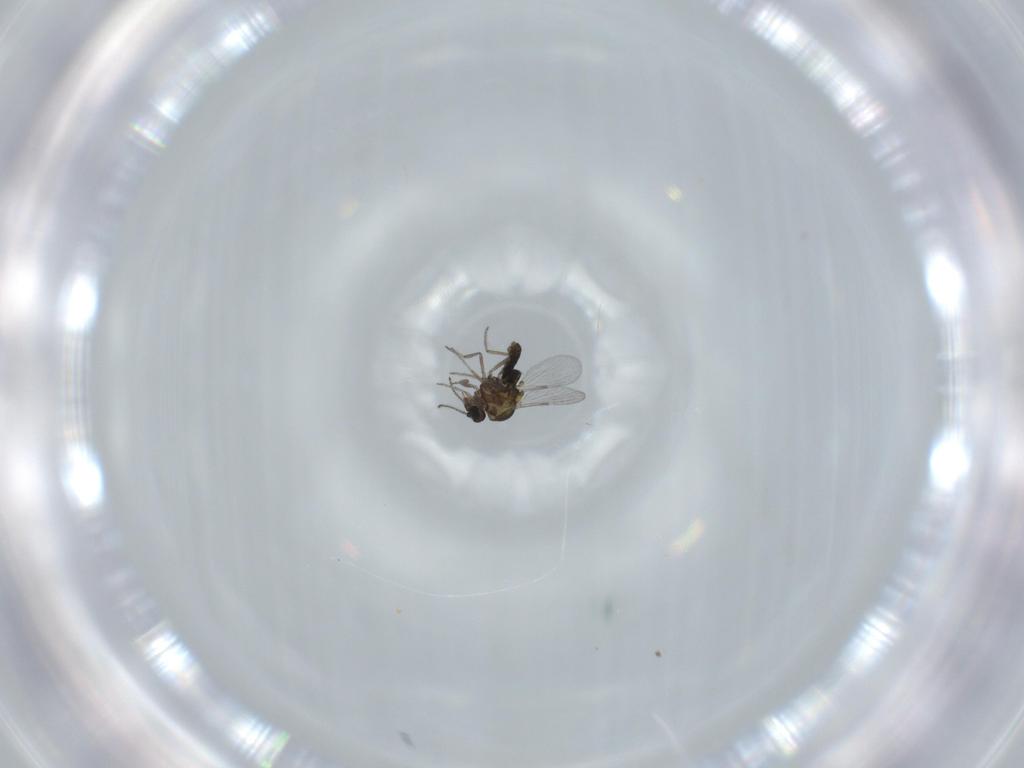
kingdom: Animalia
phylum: Arthropoda
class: Insecta
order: Diptera
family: Ceratopogonidae
